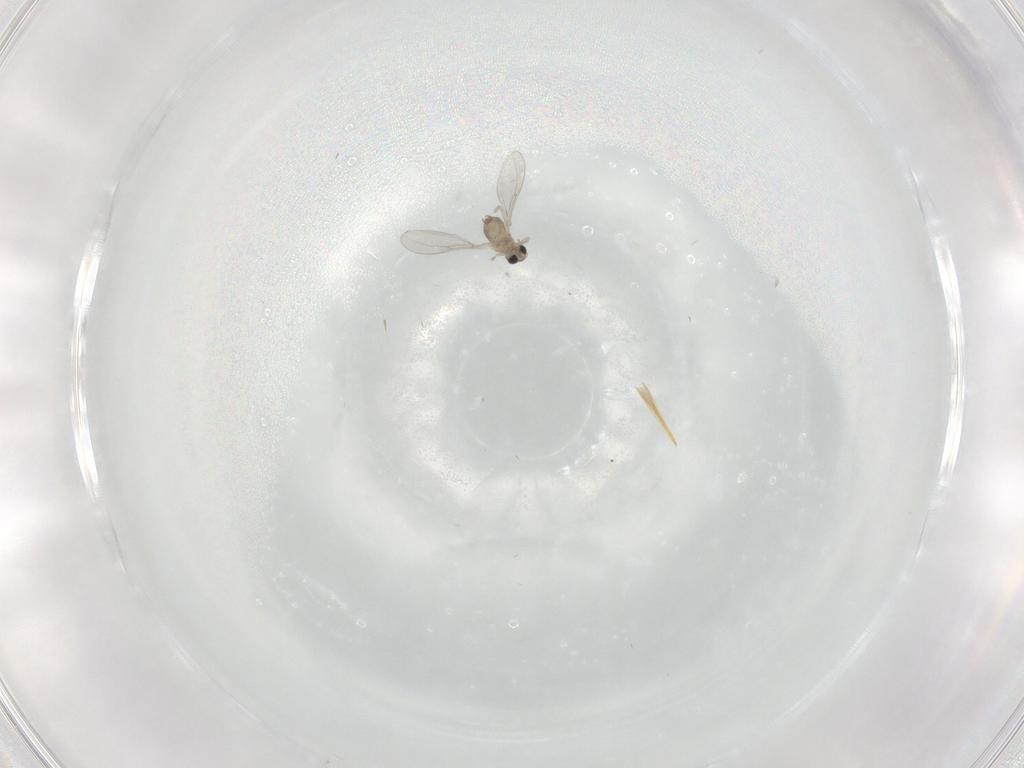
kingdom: Animalia
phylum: Arthropoda
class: Insecta
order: Diptera
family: Cecidomyiidae
